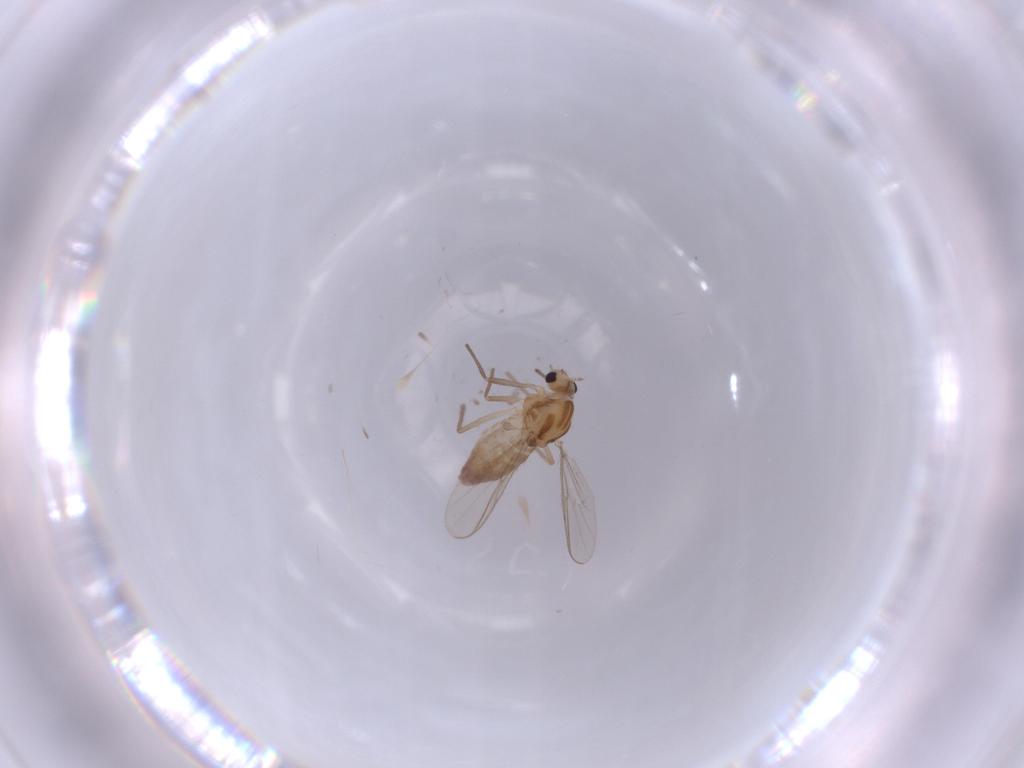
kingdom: Animalia
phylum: Arthropoda
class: Insecta
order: Diptera
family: Chironomidae
